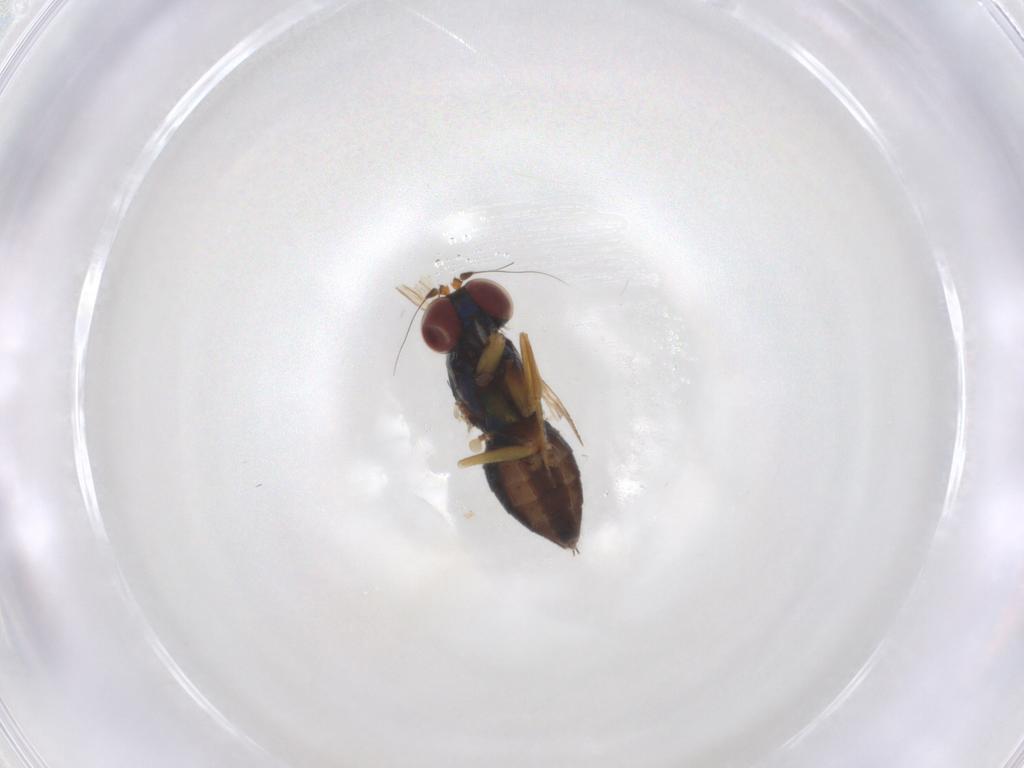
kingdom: Animalia
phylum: Arthropoda
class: Insecta
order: Diptera
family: Dolichopodidae
